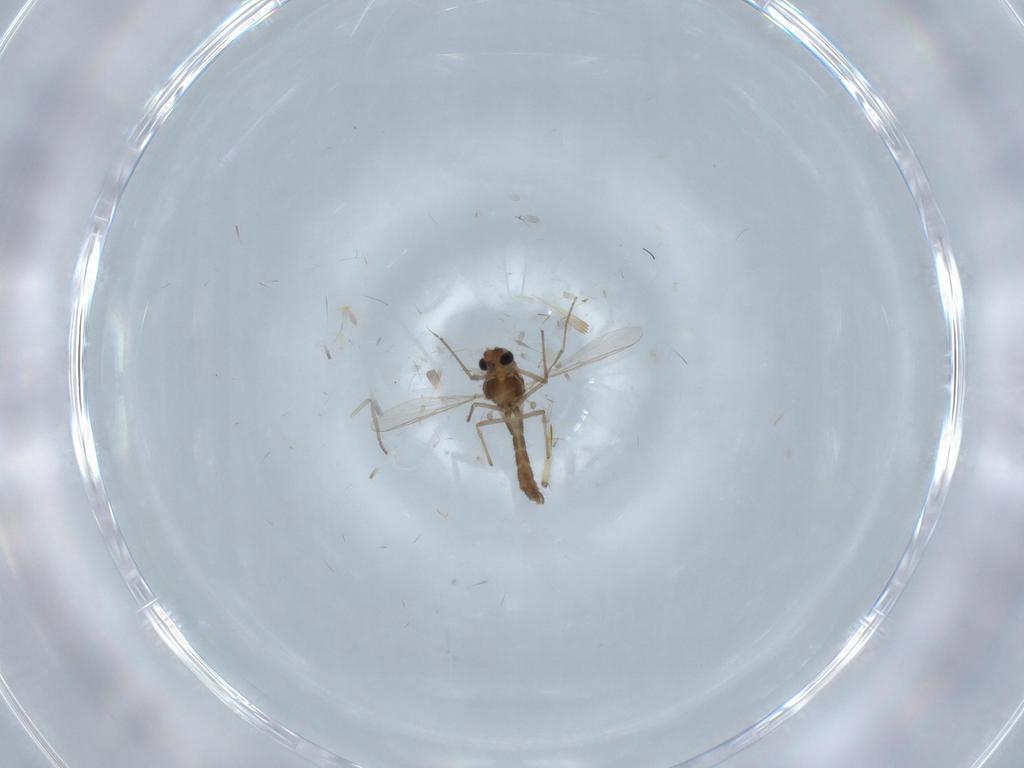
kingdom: Animalia
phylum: Arthropoda
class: Insecta
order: Diptera
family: Chironomidae
